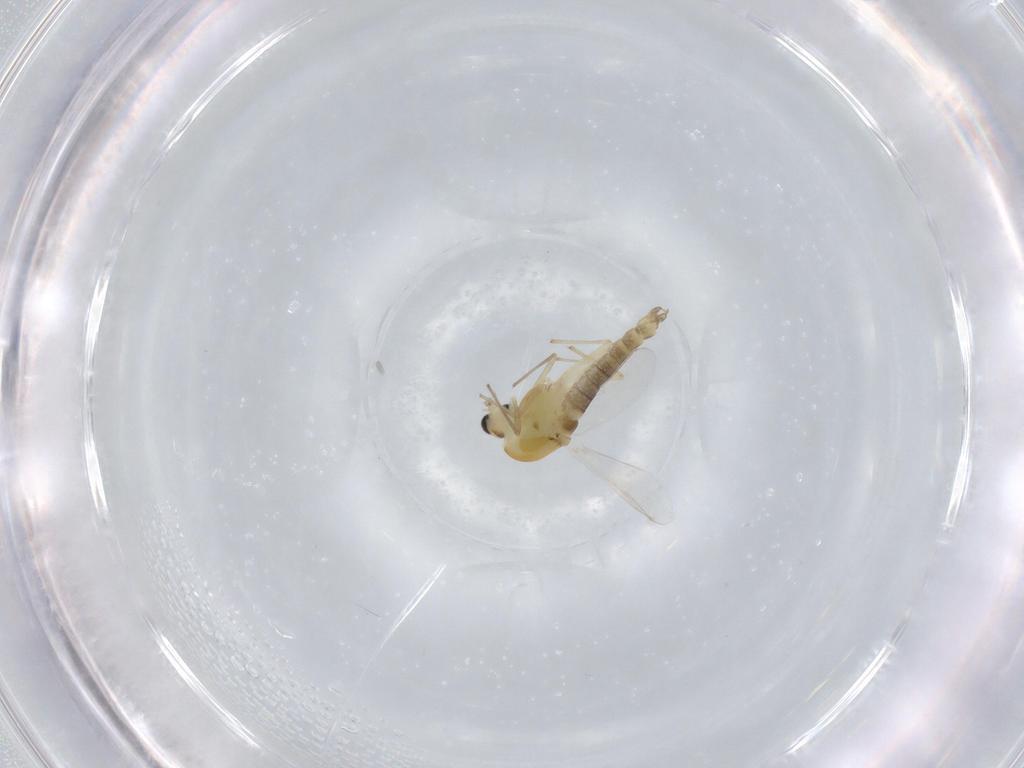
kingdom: Animalia
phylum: Arthropoda
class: Insecta
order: Diptera
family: Chironomidae
